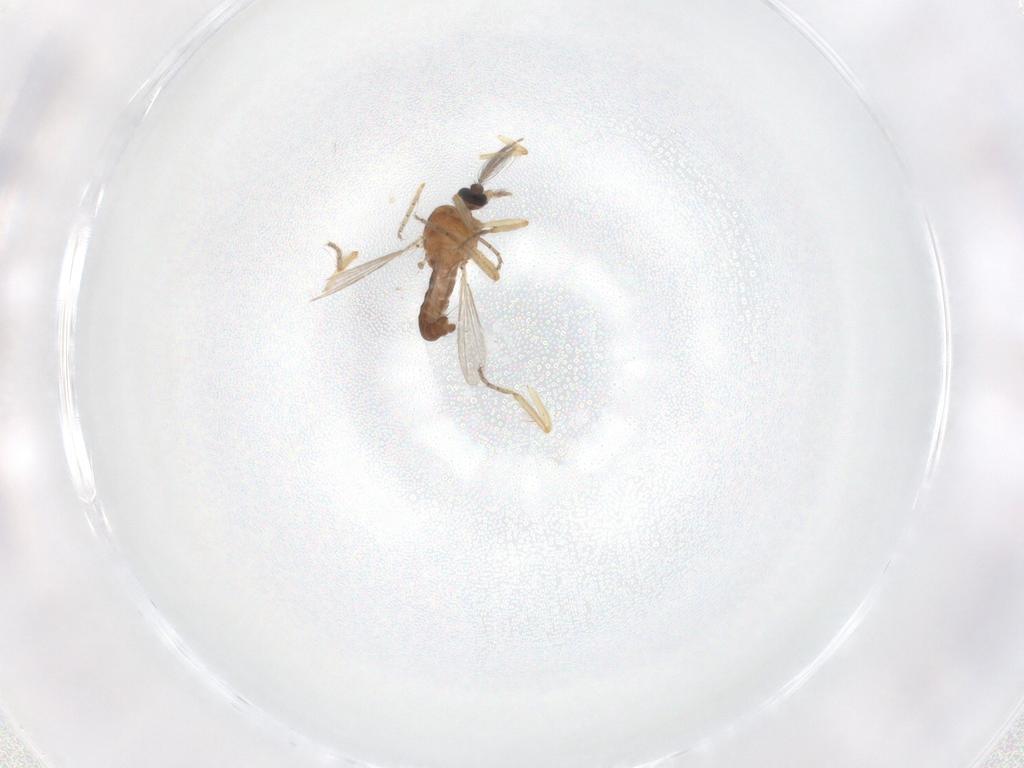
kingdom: Animalia
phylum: Arthropoda
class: Insecta
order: Diptera
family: Ceratopogonidae
